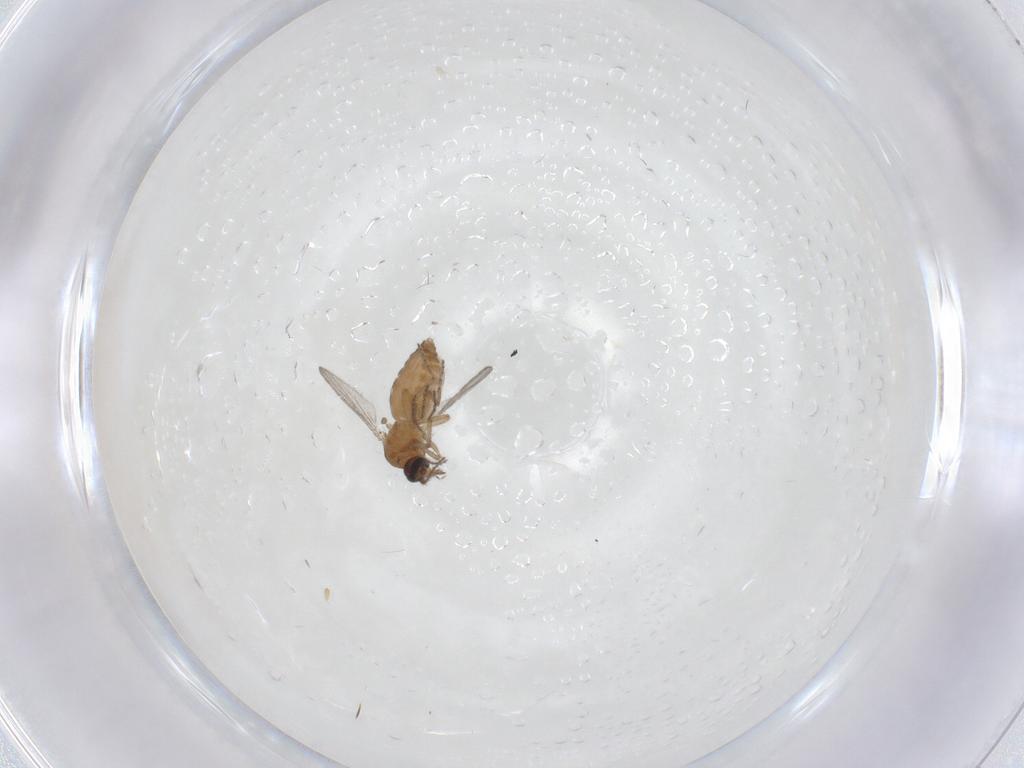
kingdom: Animalia
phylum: Arthropoda
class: Insecta
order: Diptera
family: Ceratopogonidae
